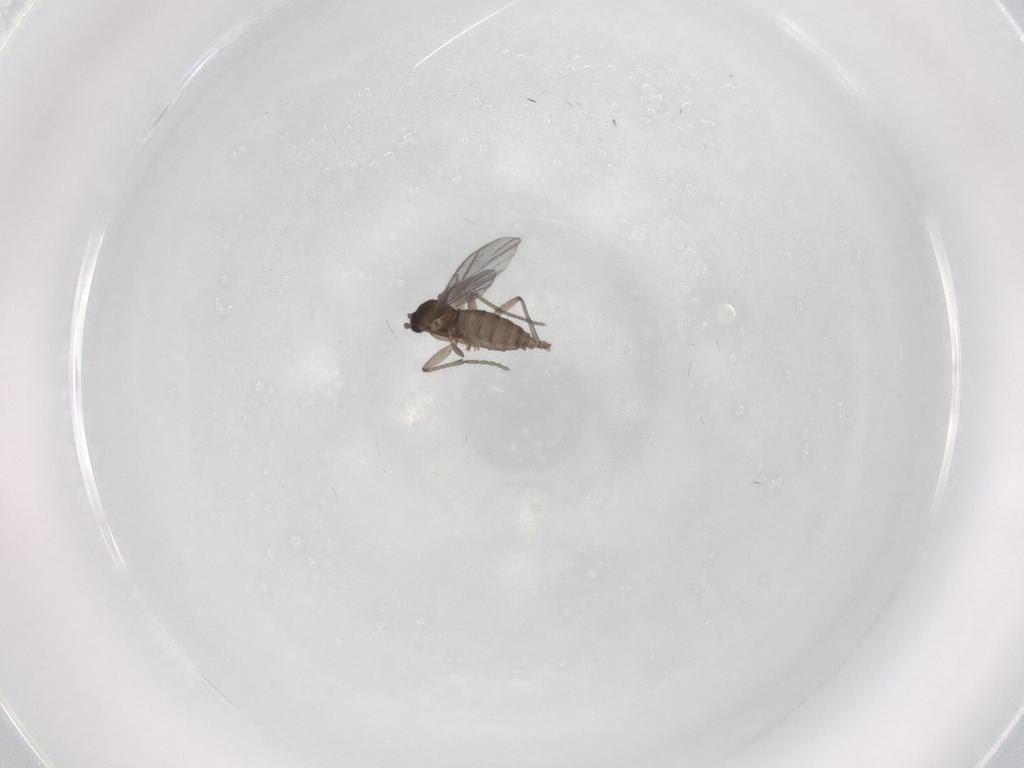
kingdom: Animalia
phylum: Arthropoda
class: Insecta
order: Diptera
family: Sciaridae
